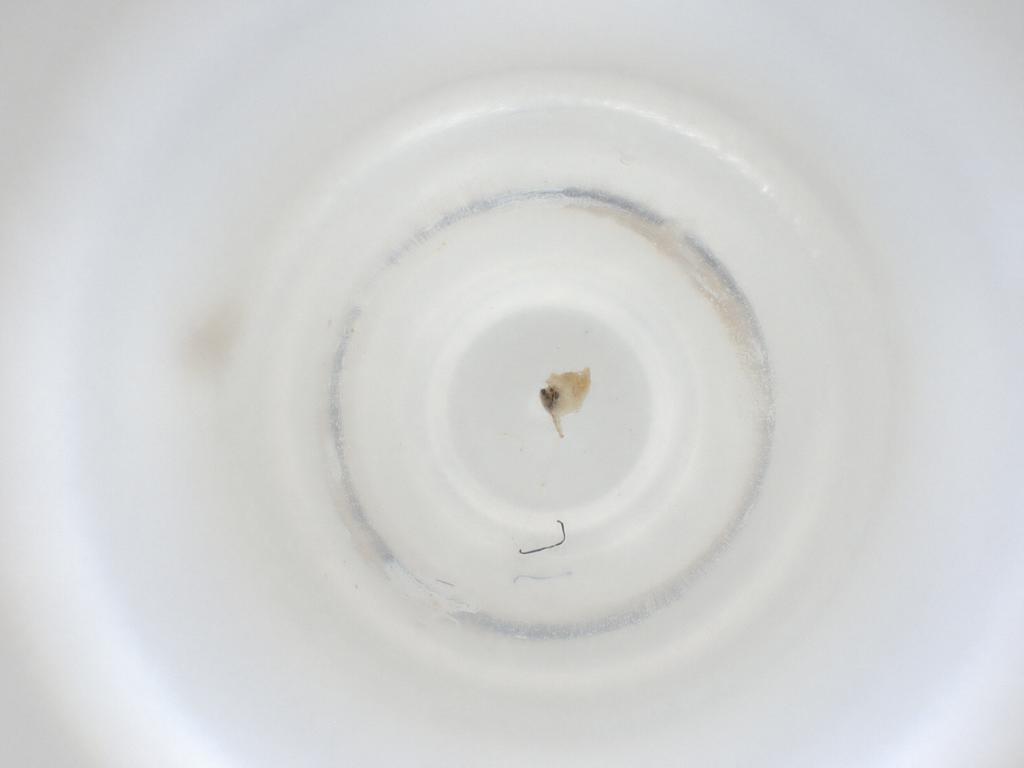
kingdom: Animalia
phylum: Arthropoda
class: Insecta
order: Diptera
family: Cecidomyiidae
